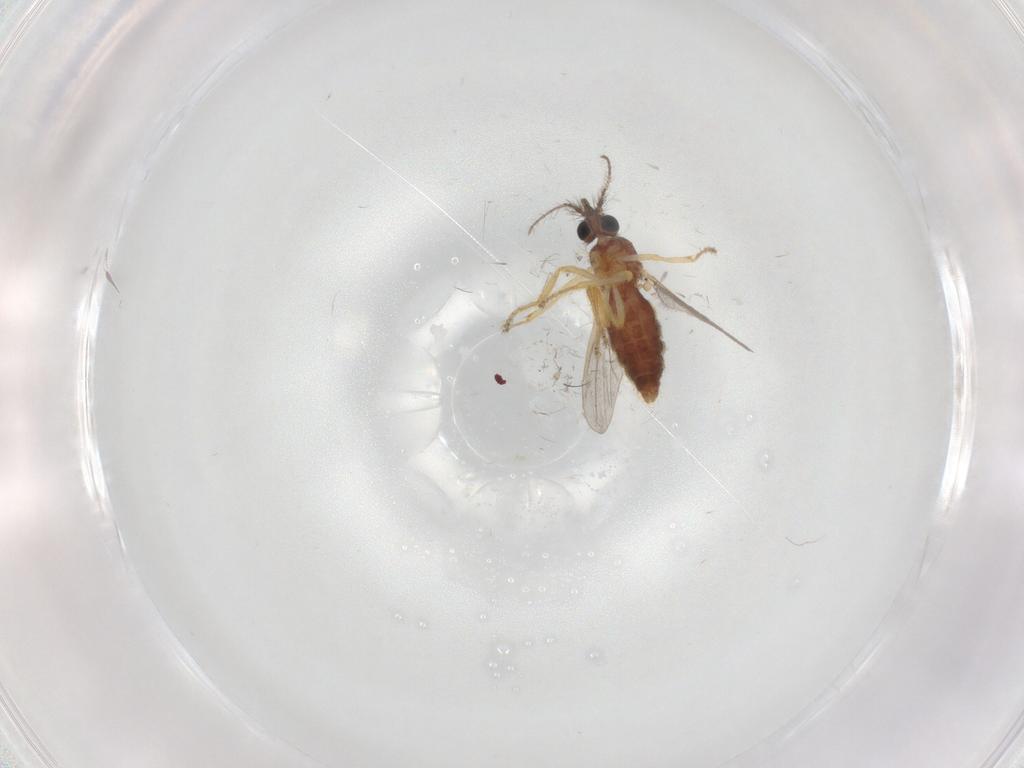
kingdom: Animalia
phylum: Arthropoda
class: Insecta
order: Diptera
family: Ceratopogonidae
